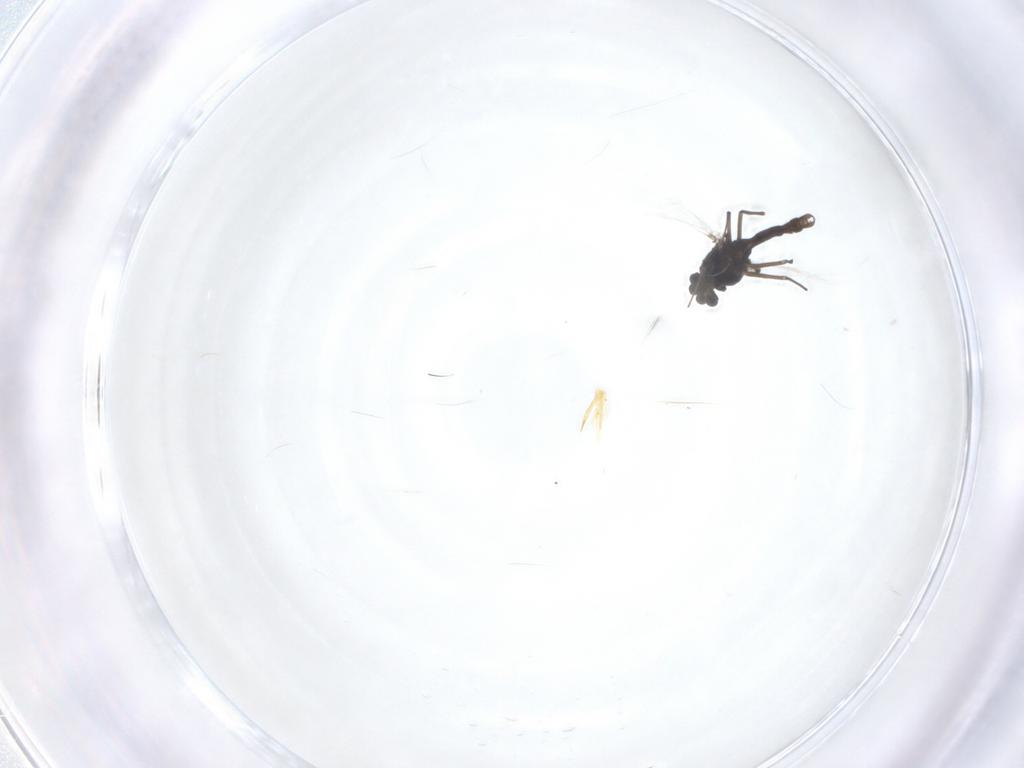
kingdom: Animalia
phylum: Arthropoda
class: Insecta
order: Diptera
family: Chironomidae
